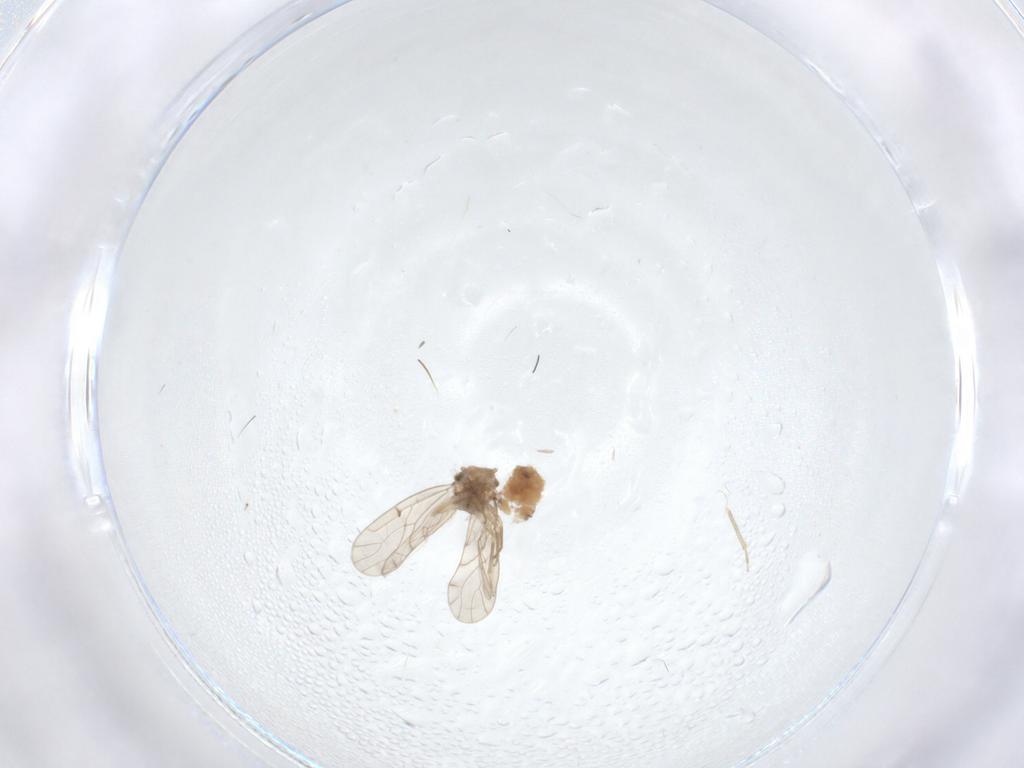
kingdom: Animalia
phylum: Arthropoda
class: Insecta
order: Psocodea
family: Ectopsocidae
